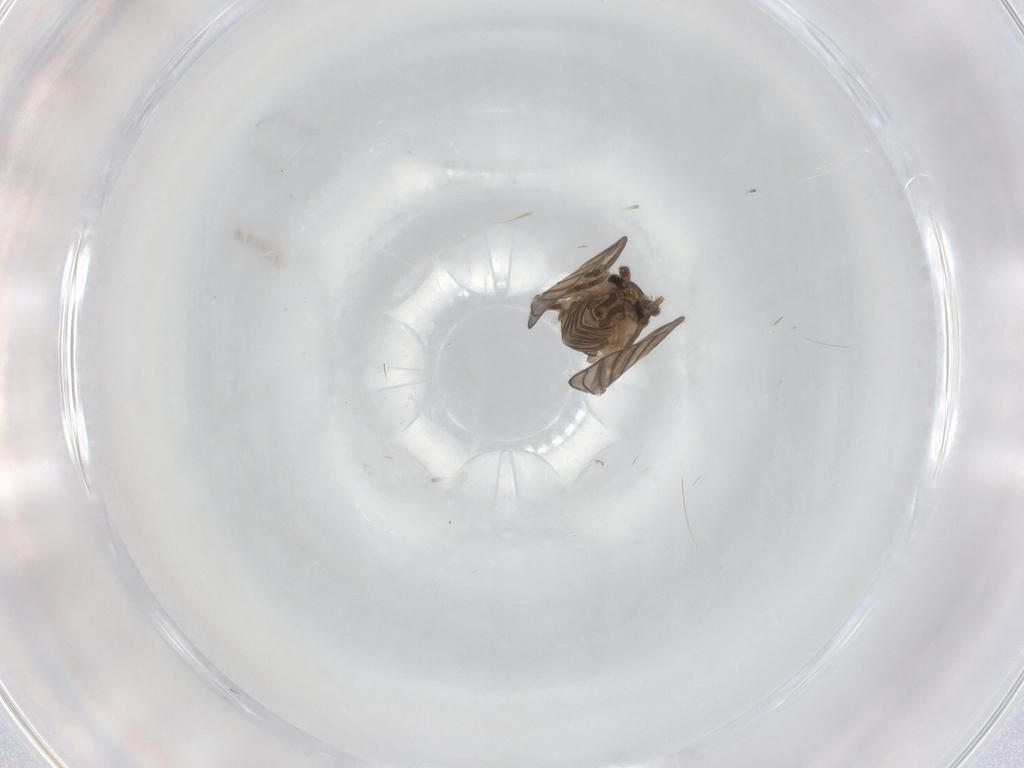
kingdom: Animalia
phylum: Arthropoda
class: Insecta
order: Diptera
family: Psychodidae
